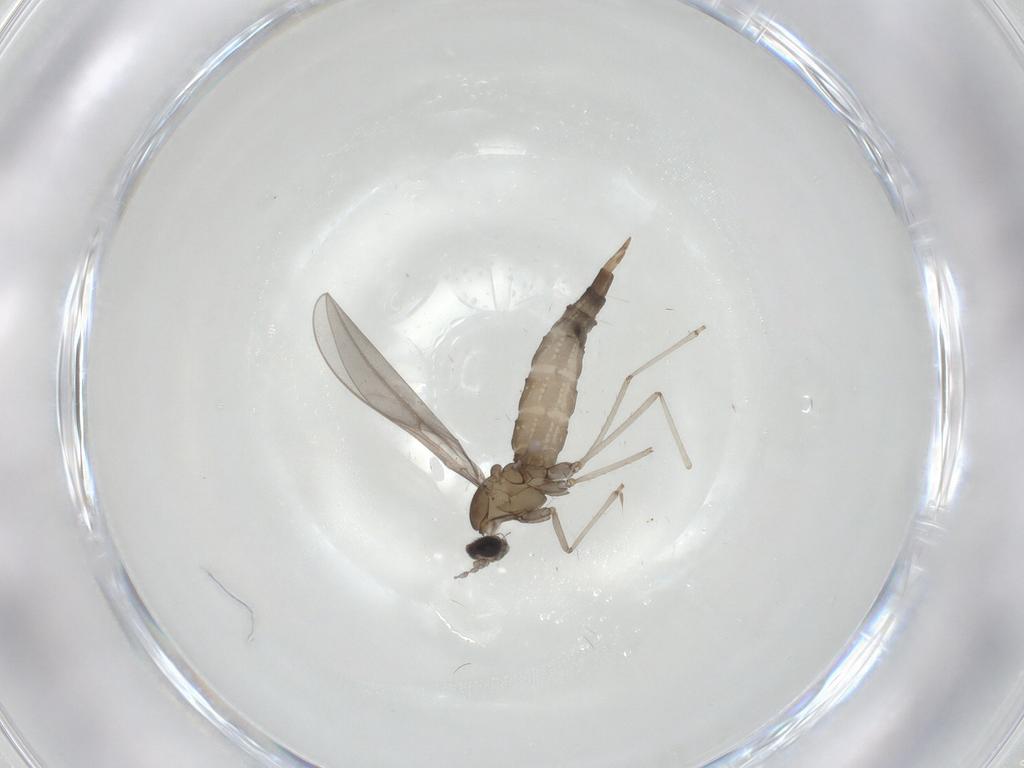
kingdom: Animalia
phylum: Arthropoda
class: Insecta
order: Diptera
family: Cecidomyiidae
